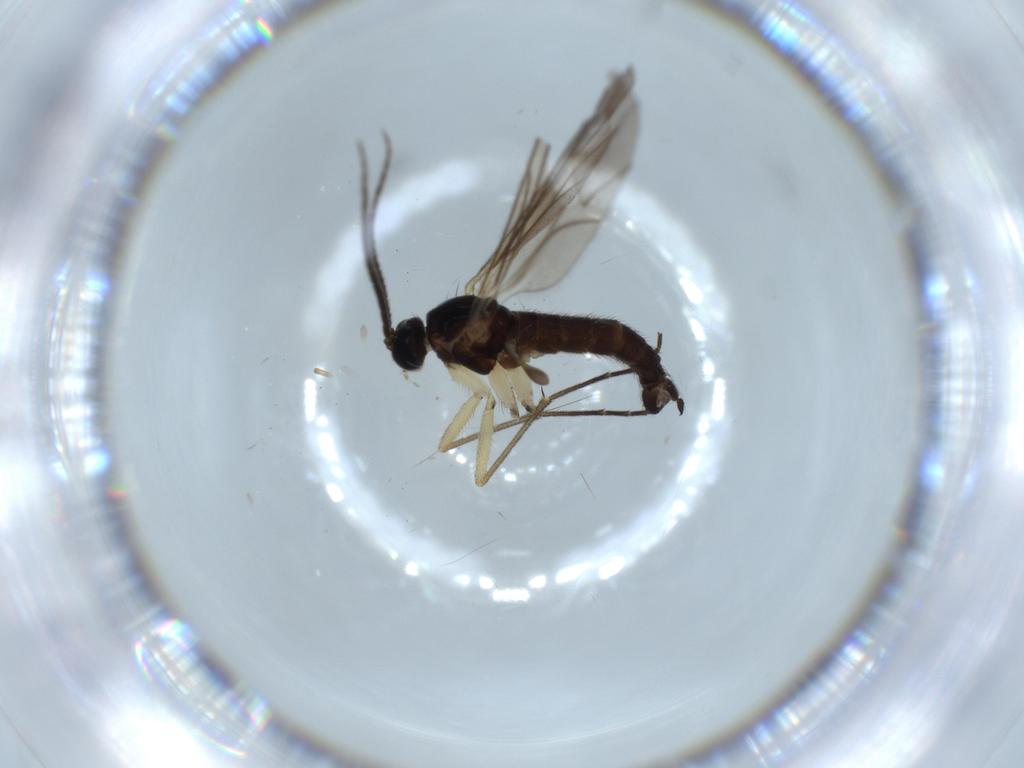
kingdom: Animalia
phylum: Arthropoda
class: Insecta
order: Diptera
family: Sciaridae
